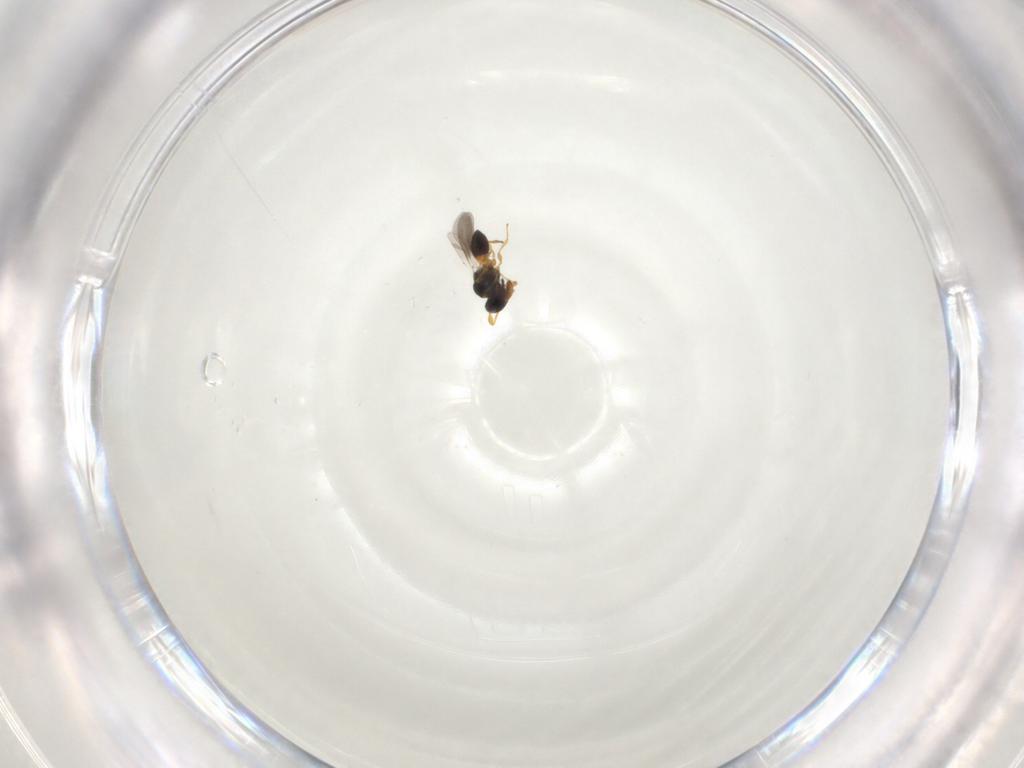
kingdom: Animalia
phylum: Arthropoda
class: Insecta
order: Hymenoptera
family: Platygastridae
